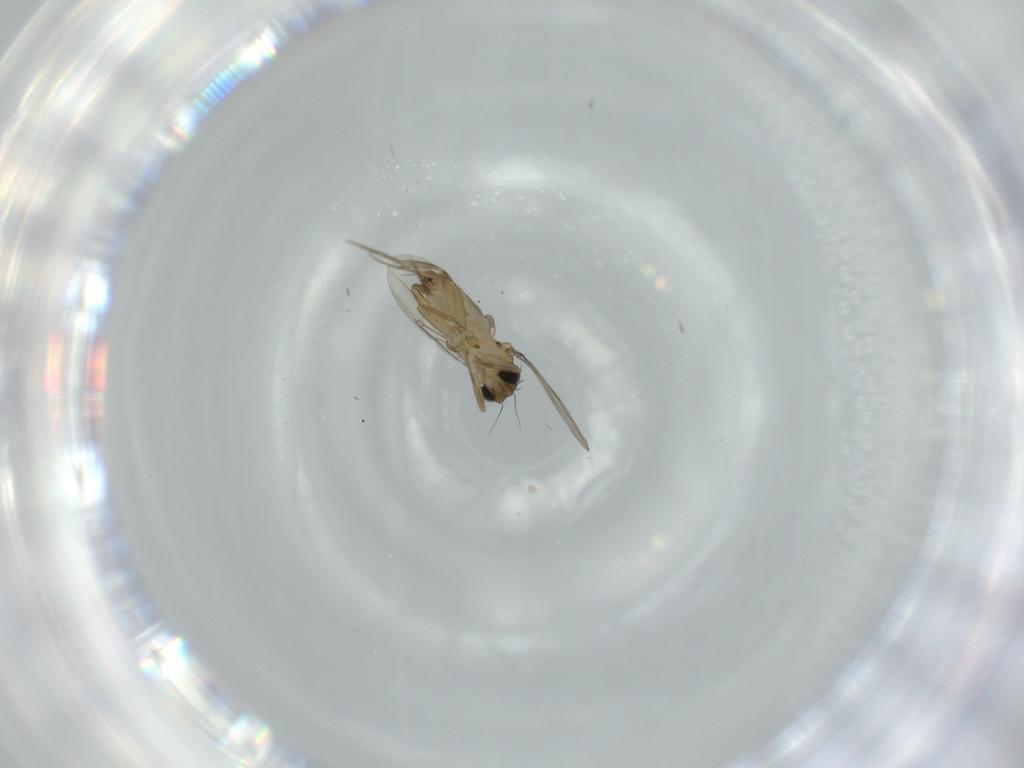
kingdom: Animalia
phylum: Arthropoda
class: Insecta
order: Diptera
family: Phoridae
